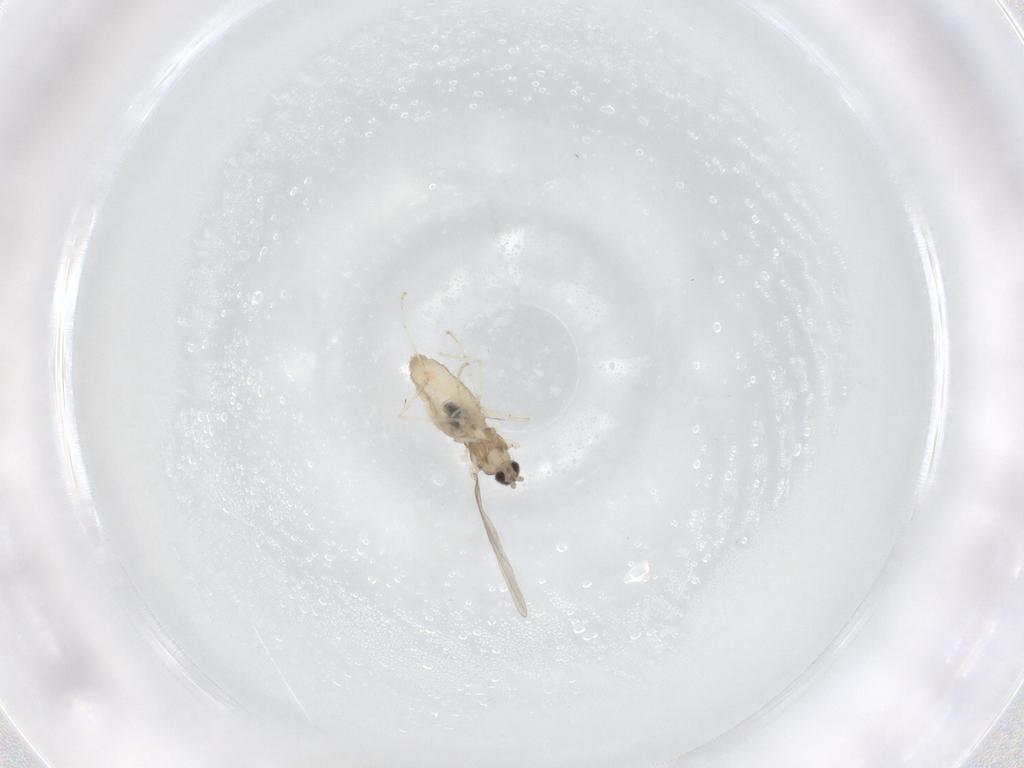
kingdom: Animalia
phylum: Arthropoda
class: Insecta
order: Diptera
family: Cecidomyiidae
